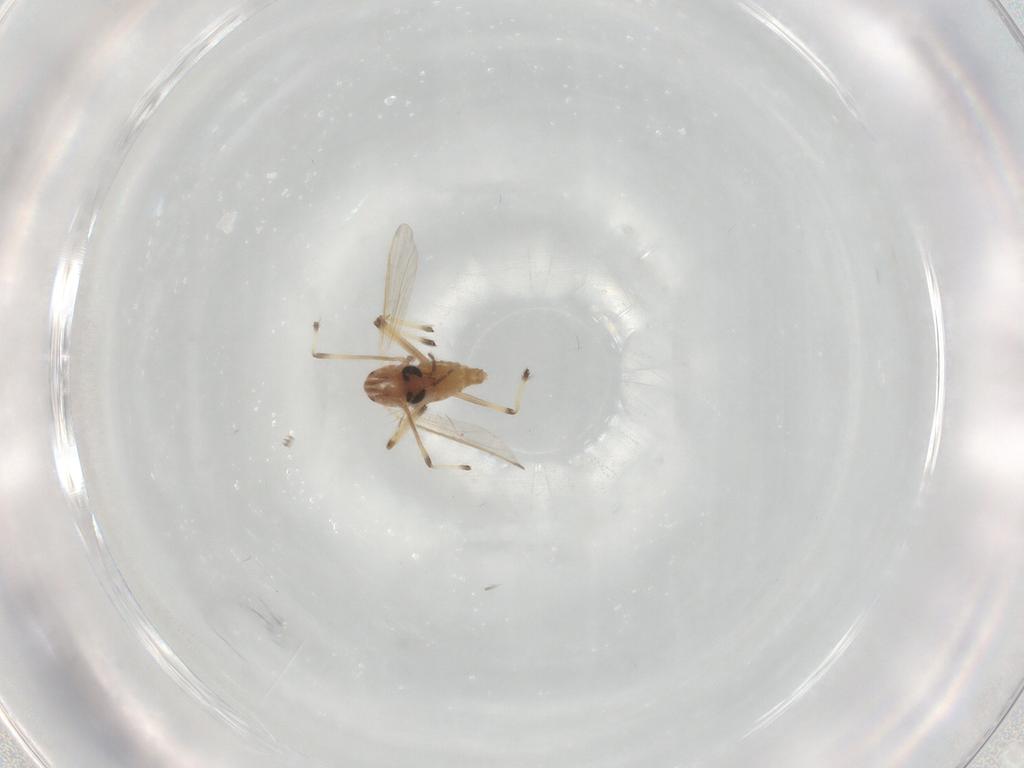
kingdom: Animalia
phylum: Arthropoda
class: Insecta
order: Diptera
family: Chironomidae
